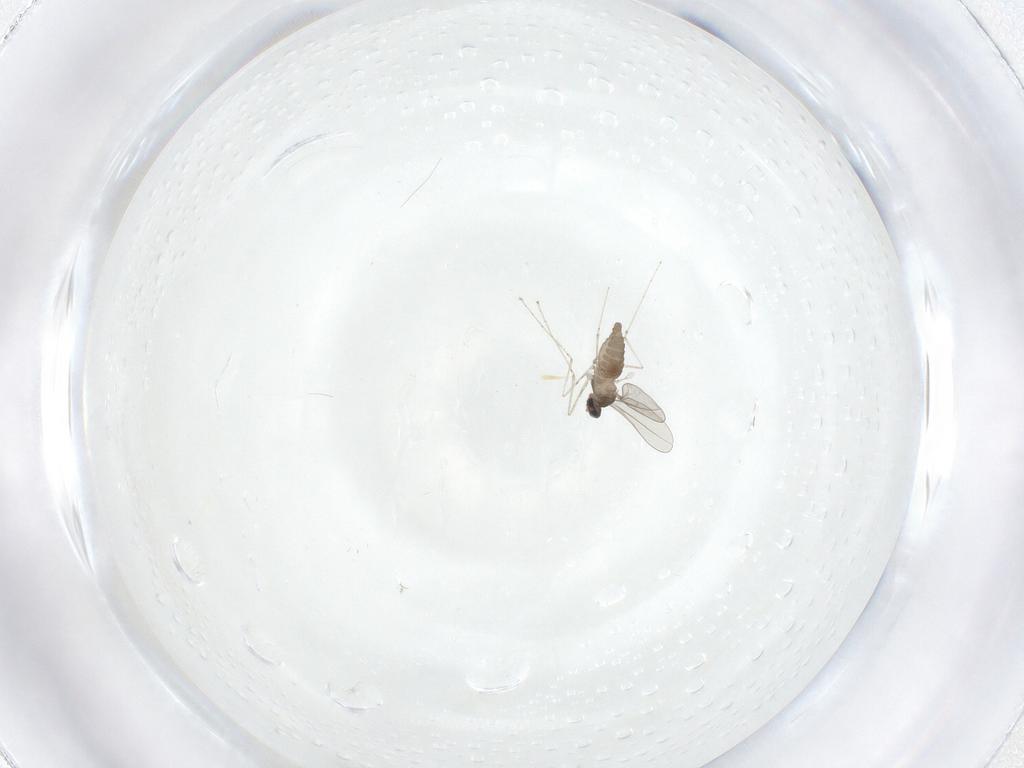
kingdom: Animalia
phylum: Arthropoda
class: Insecta
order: Diptera
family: Cecidomyiidae
